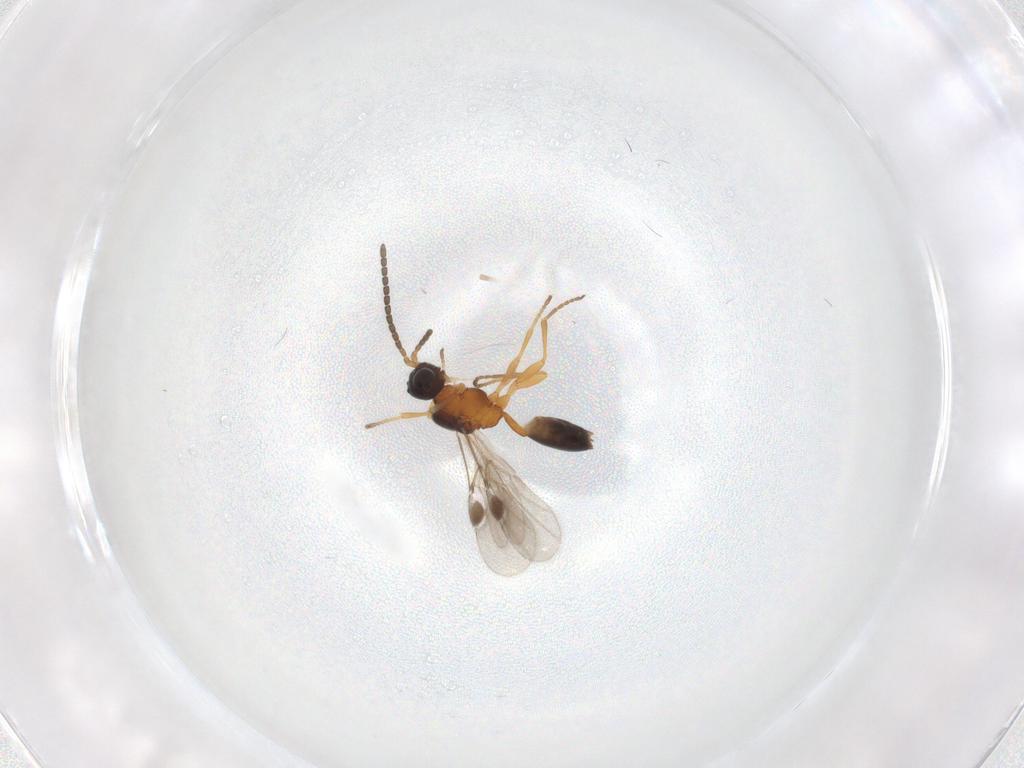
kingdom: Animalia
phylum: Arthropoda
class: Insecta
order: Hymenoptera
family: Braconidae
